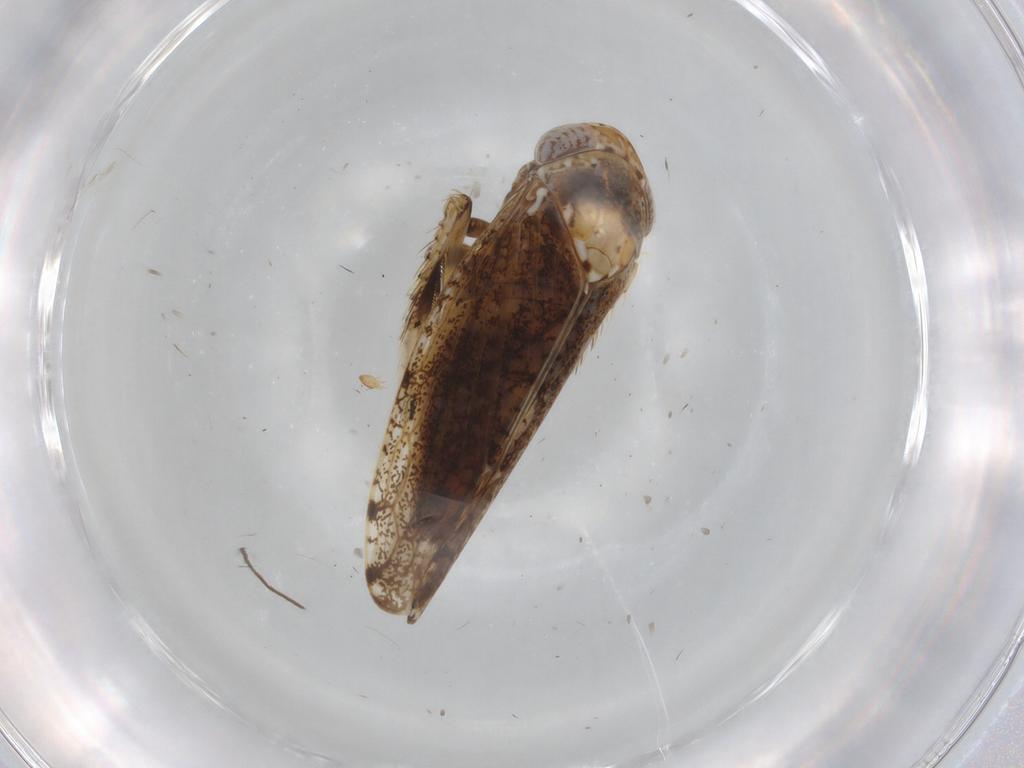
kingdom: Animalia
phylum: Arthropoda
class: Insecta
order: Hemiptera
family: Cicadellidae
